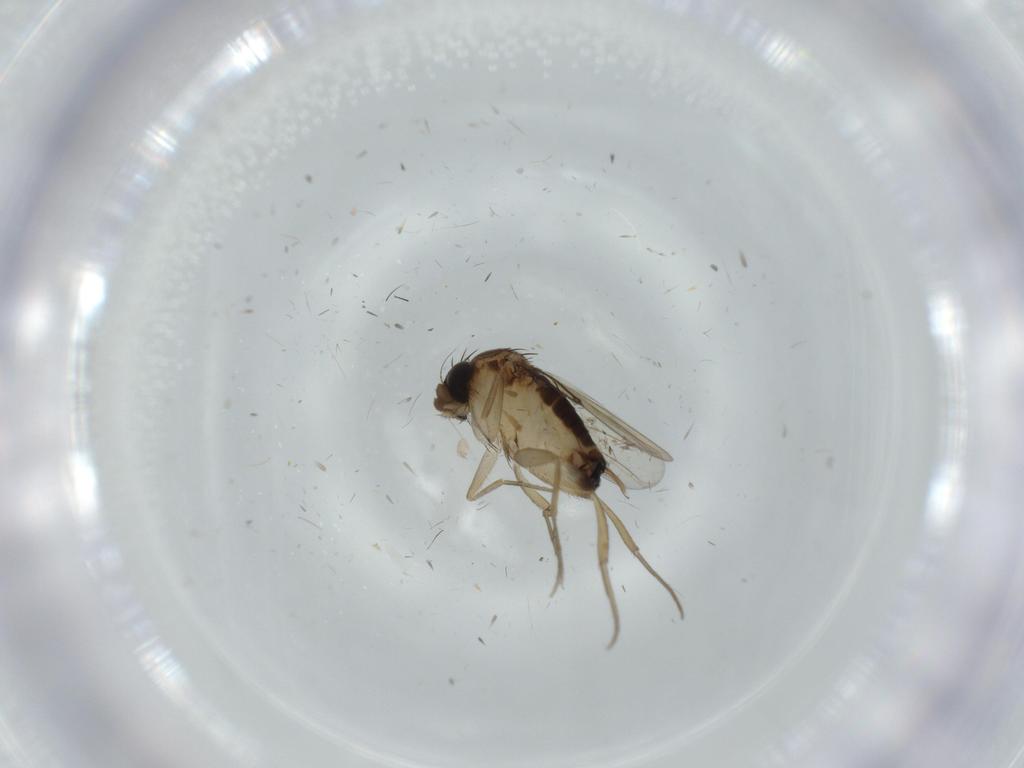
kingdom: Animalia
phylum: Arthropoda
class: Insecta
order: Diptera
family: Phoridae
